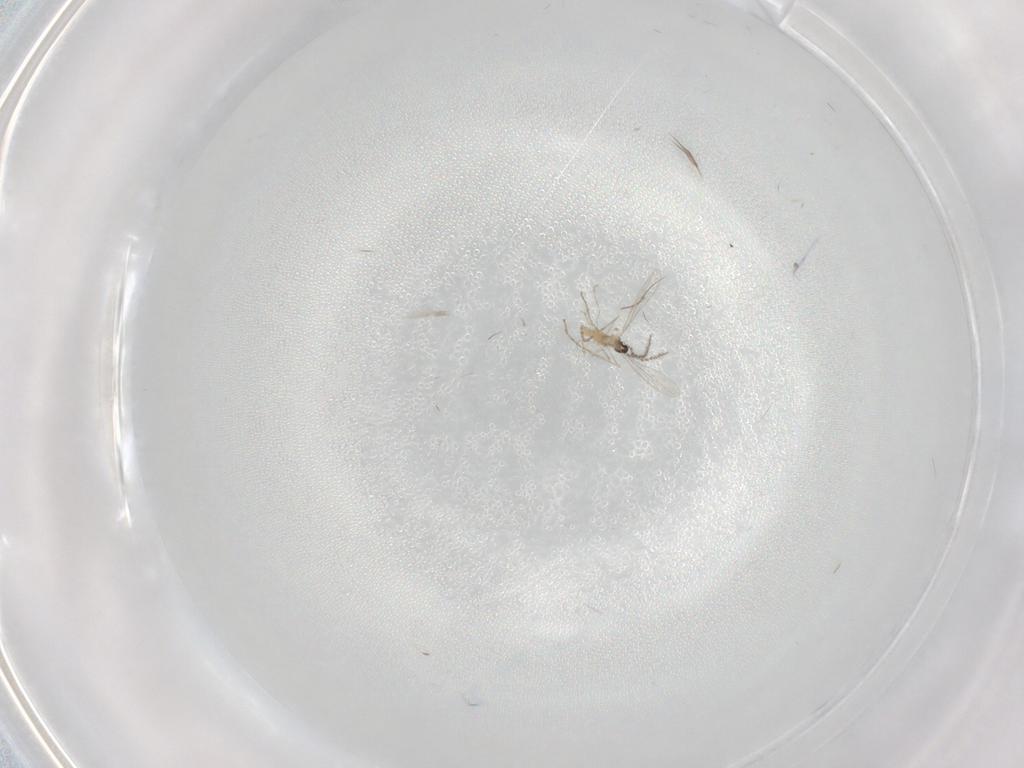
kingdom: Animalia
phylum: Arthropoda
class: Insecta
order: Diptera
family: Cecidomyiidae
